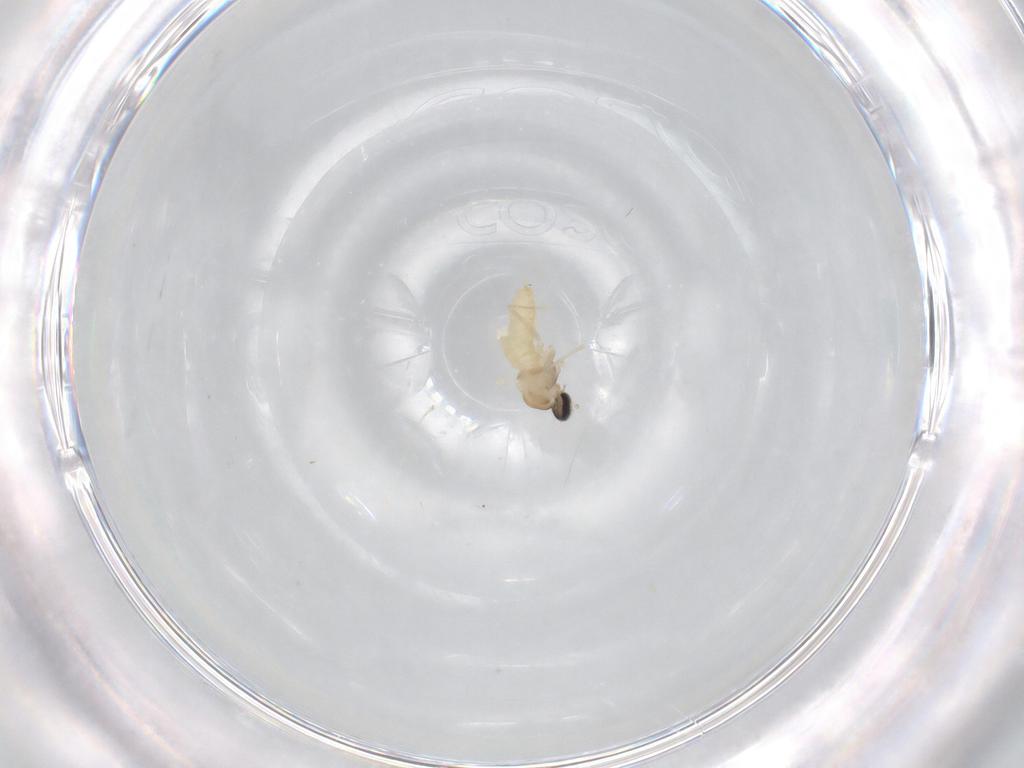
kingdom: Animalia
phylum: Arthropoda
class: Insecta
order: Diptera
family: Cecidomyiidae
